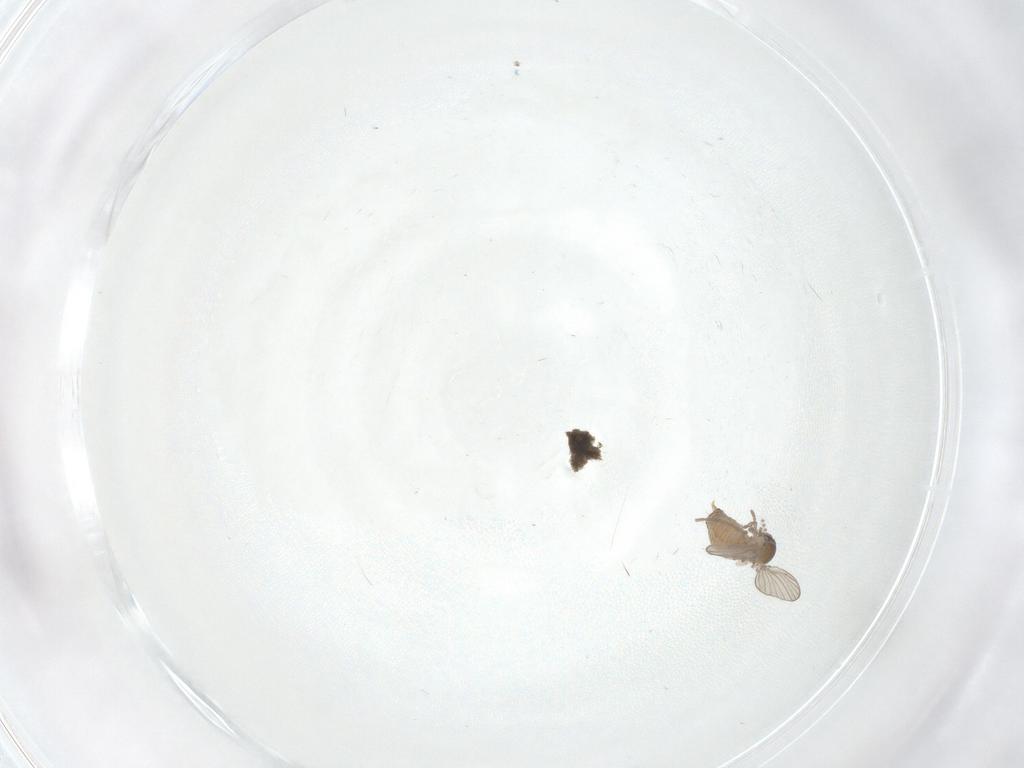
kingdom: Animalia
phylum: Arthropoda
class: Insecta
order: Diptera
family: Psychodidae
